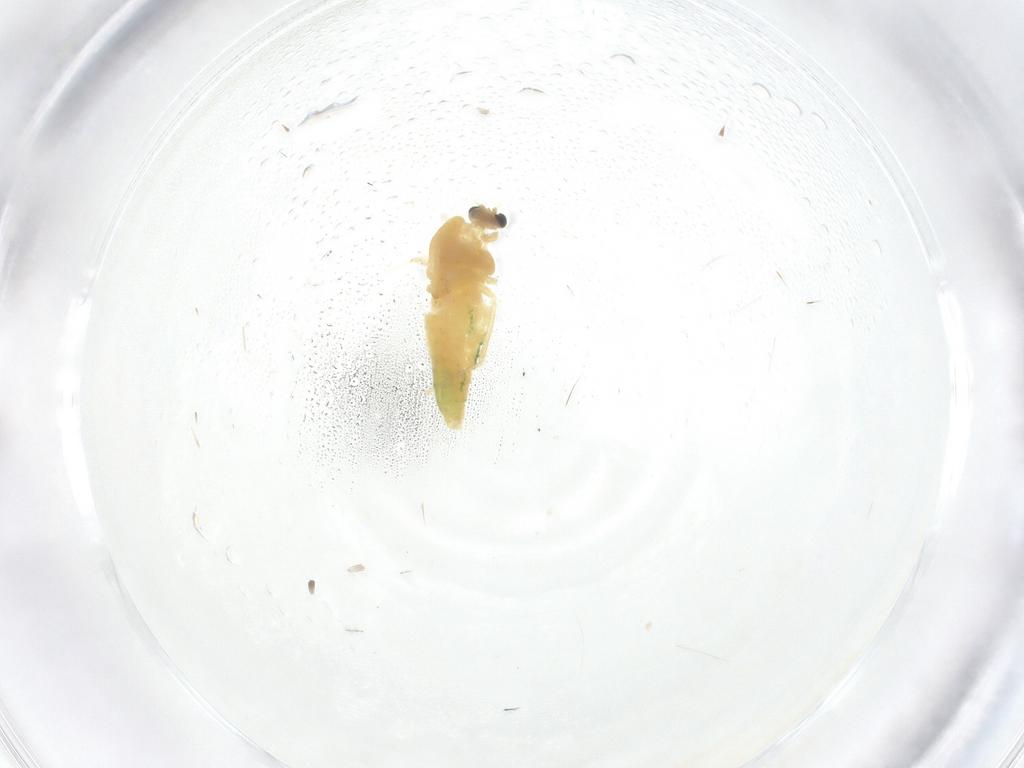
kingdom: Animalia
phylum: Arthropoda
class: Insecta
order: Diptera
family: Chironomidae
